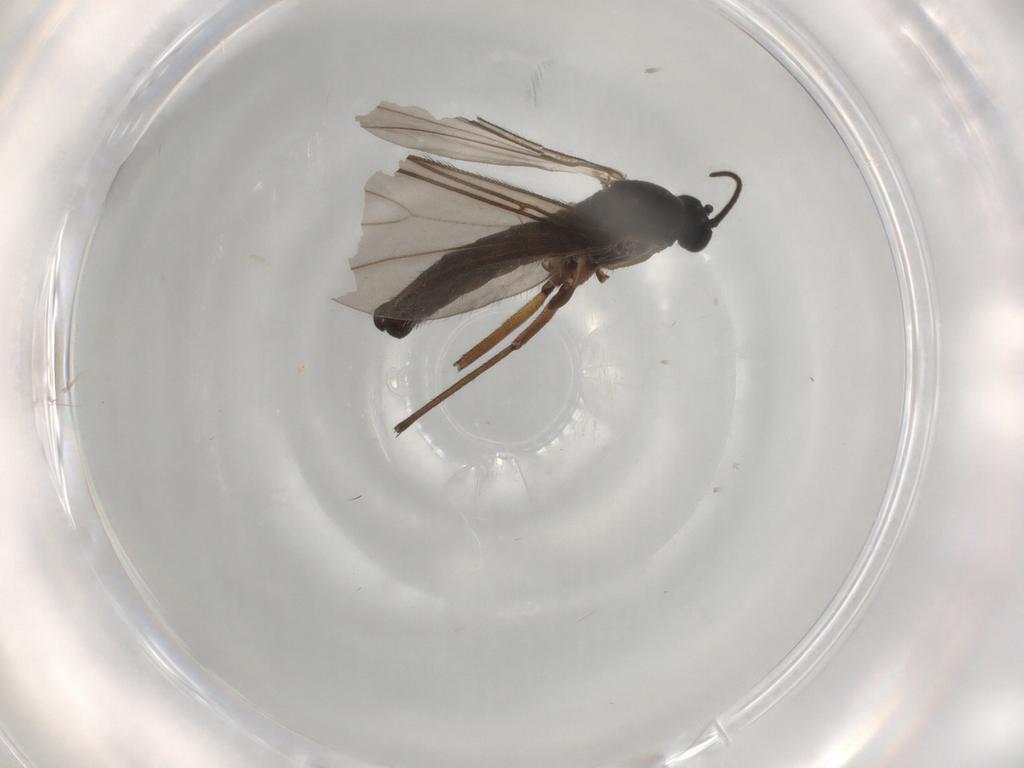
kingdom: Animalia
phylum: Arthropoda
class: Insecta
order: Diptera
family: Sciaridae
